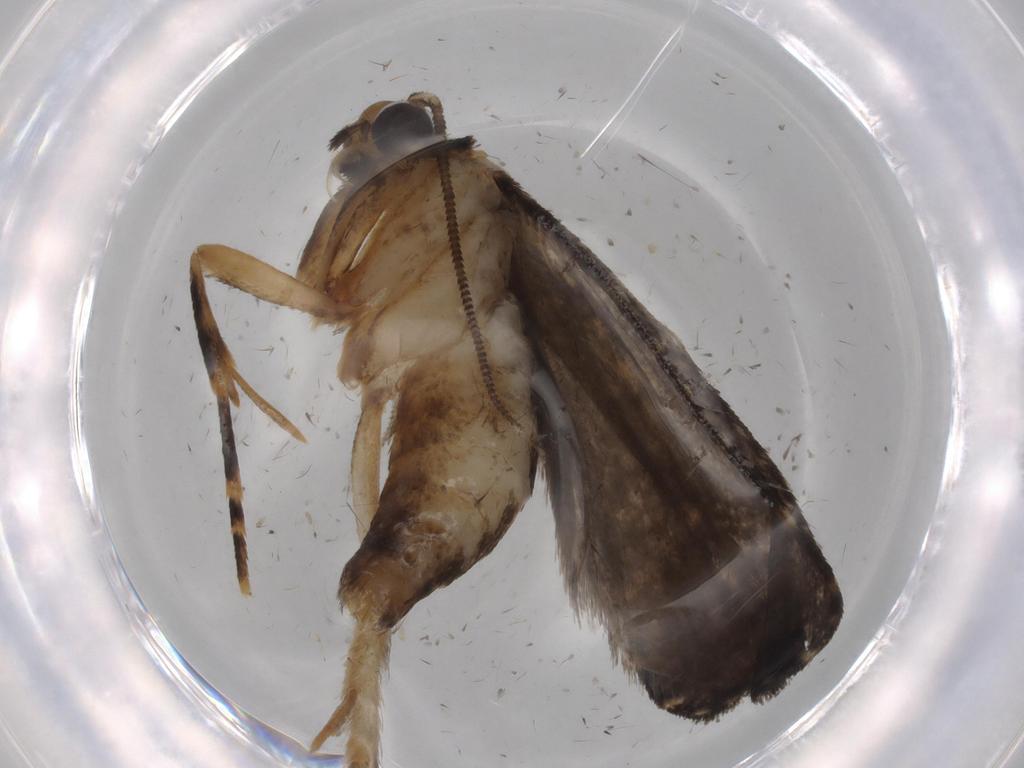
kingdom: Animalia
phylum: Arthropoda
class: Insecta
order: Lepidoptera
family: Tineidae
